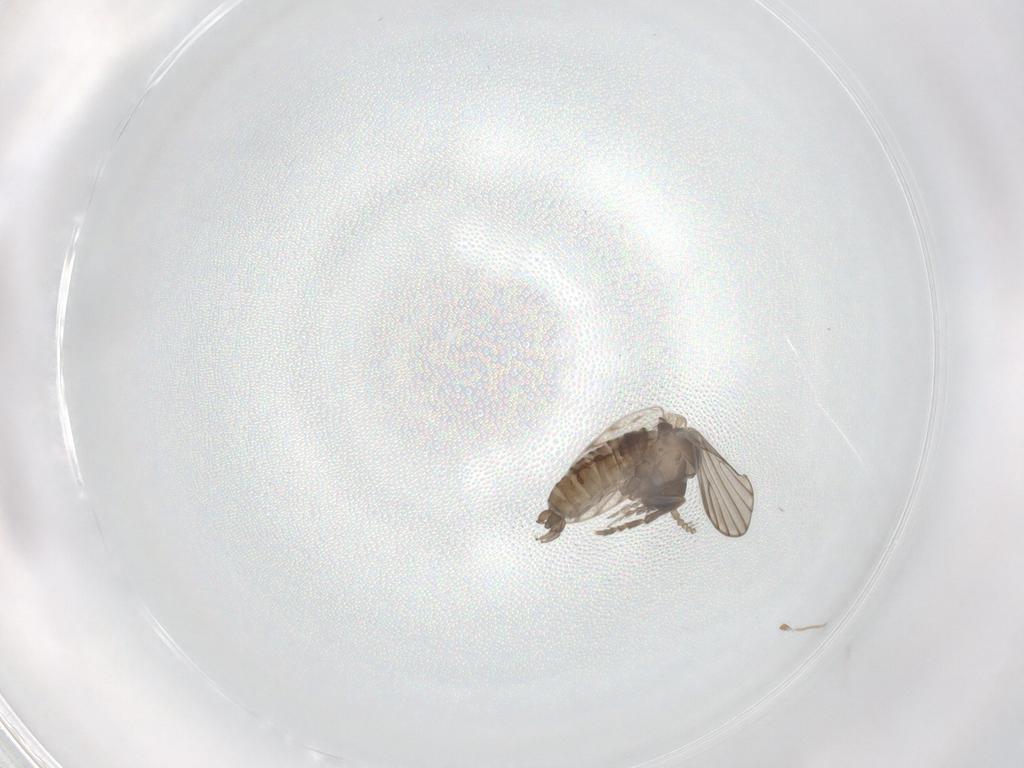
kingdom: Animalia
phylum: Arthropoda
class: Insecta
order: Diptera
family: Psychodidae
